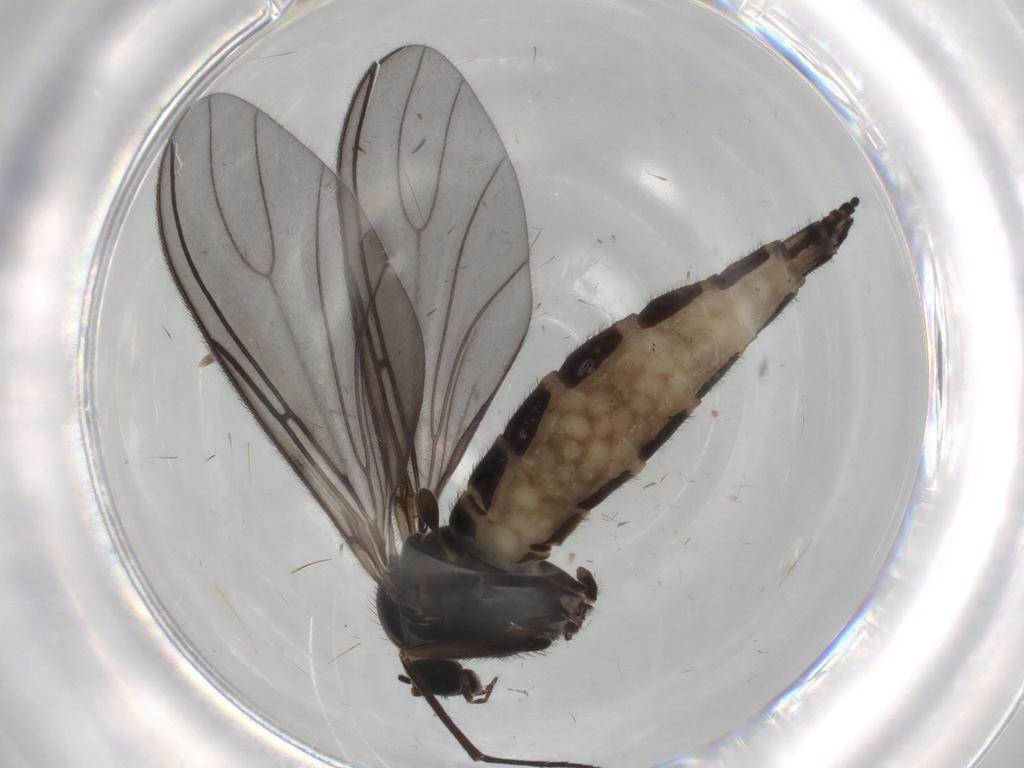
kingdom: Animalia
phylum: Arthropoda
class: Insecta
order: Diptera
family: Sciaridae
